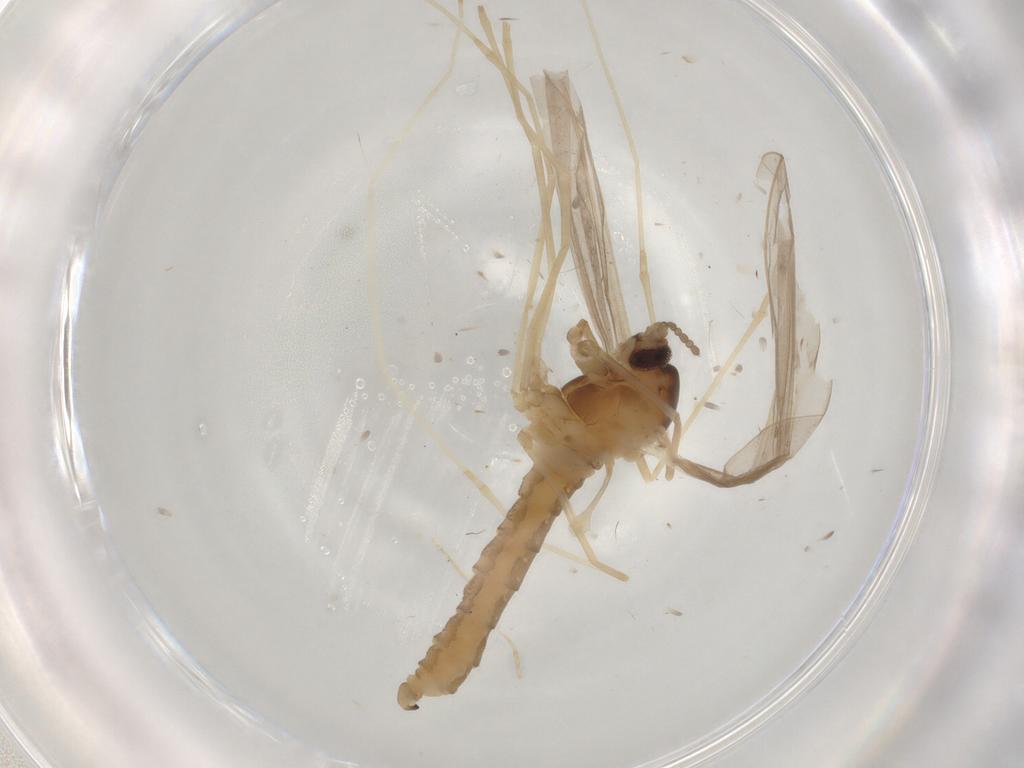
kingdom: Animalia
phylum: Arthropoda
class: Insecta
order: Diptera
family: Cecidomyiidae
